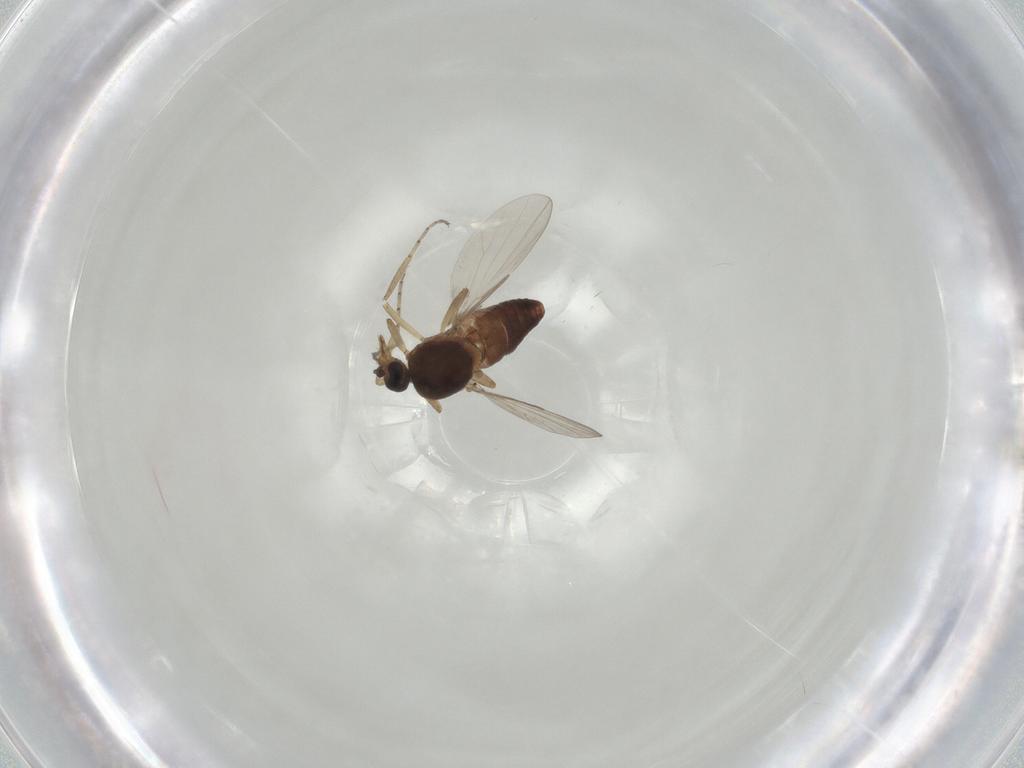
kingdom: Animalia
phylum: Arthropoda
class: Insecta
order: Diptera
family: Ceratopogonidae
